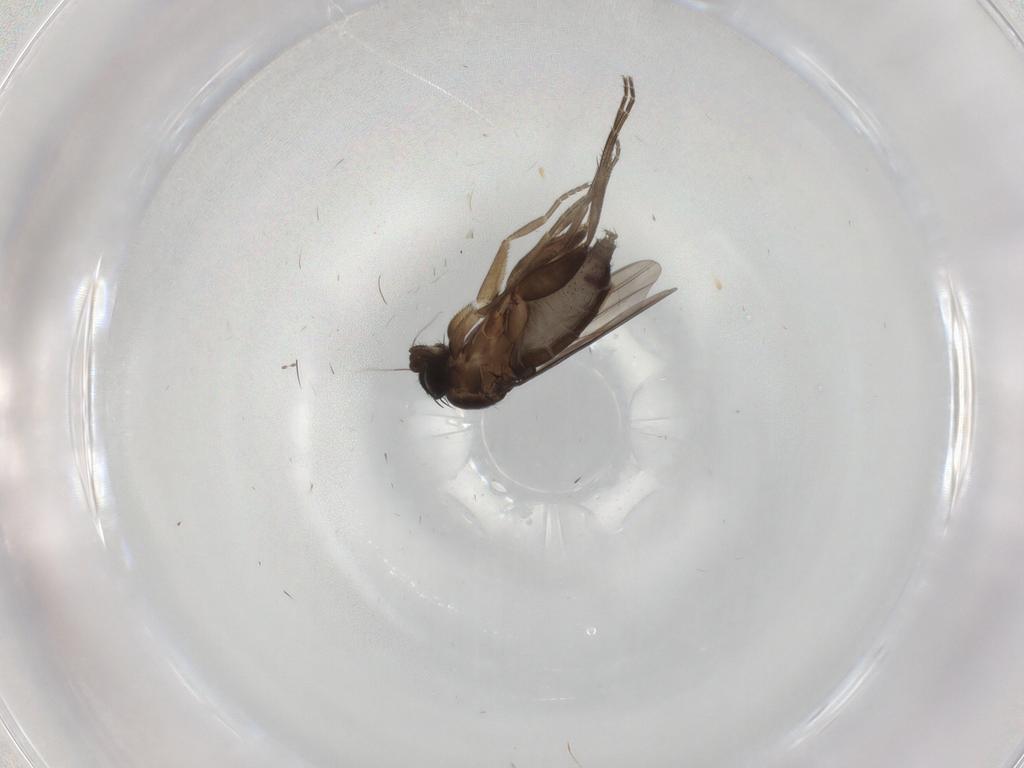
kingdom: Animalia
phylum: Arthropoda
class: Insecta
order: Diptera
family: Phoridae
